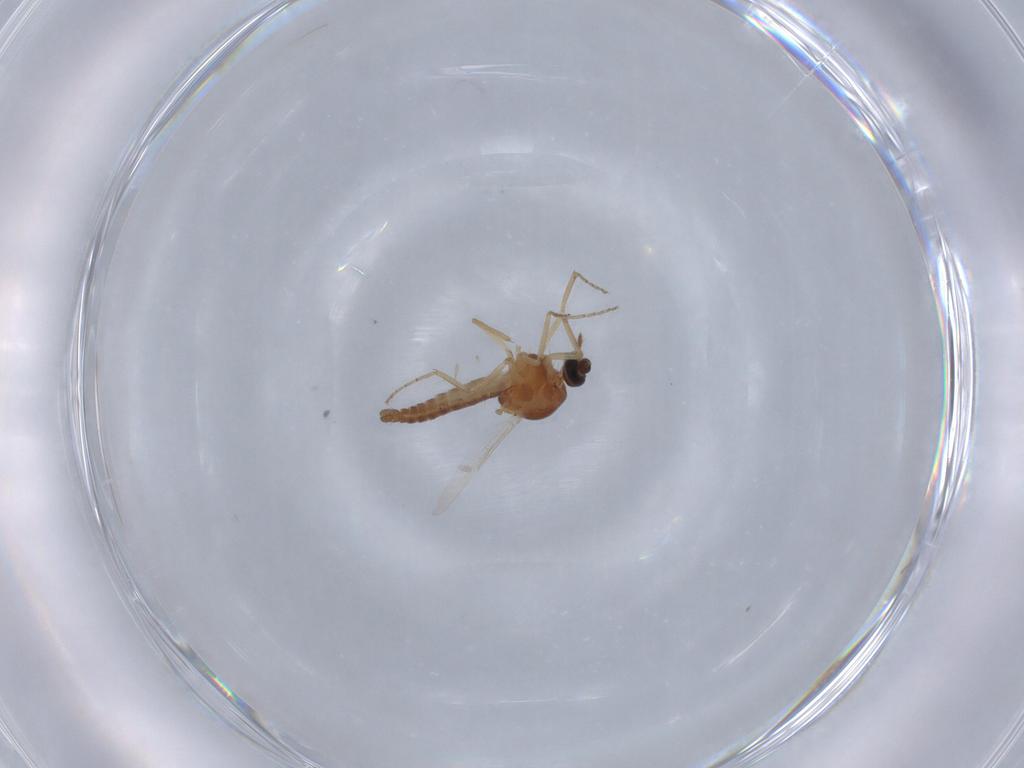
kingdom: Animalia
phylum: Arthropoda
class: Insecta
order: Diptera
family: Ceratopogonidae
